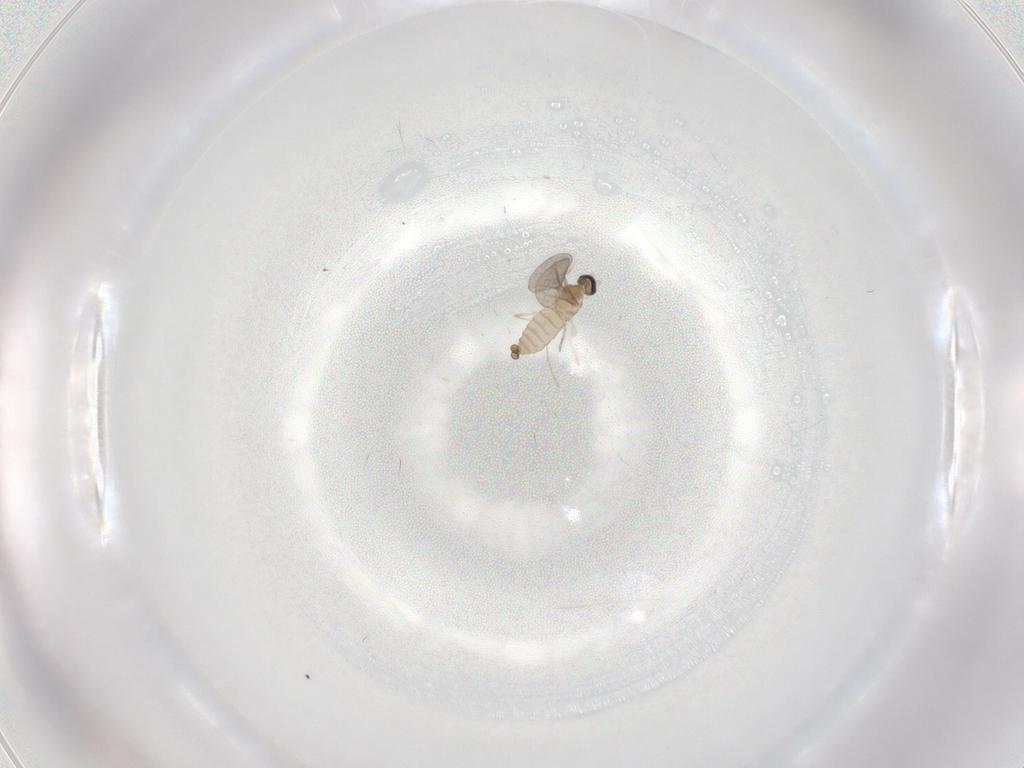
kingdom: Animalia
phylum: Arthropoda
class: Insecta
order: Diptera
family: Cecidomyiidae
